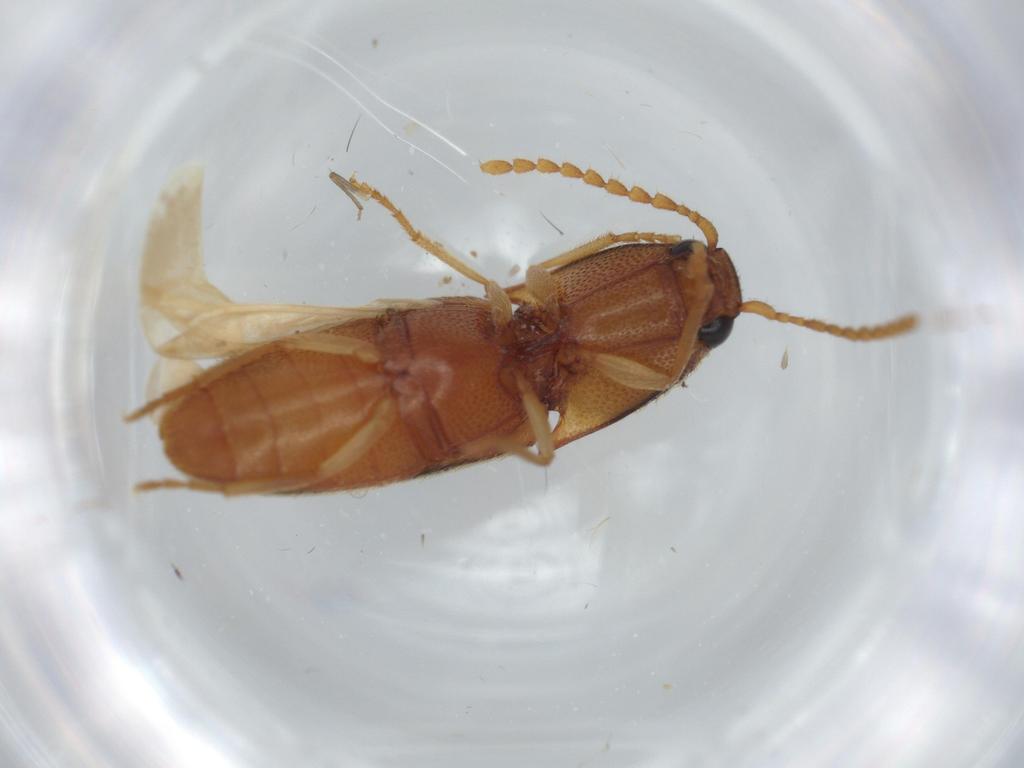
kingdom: Animalia
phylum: Arthropoda
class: Insecta
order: Coleoptera
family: Elateridae
